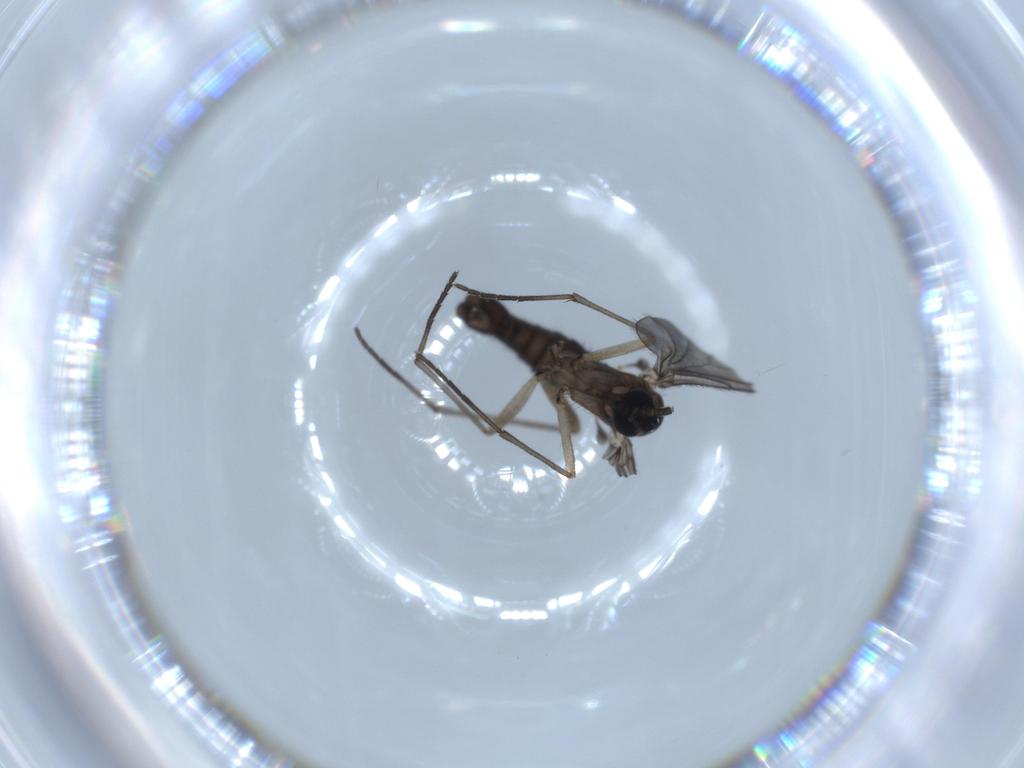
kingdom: Animalia
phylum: Arthropoda
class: Insecta
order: Diptera
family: Sciaridae
